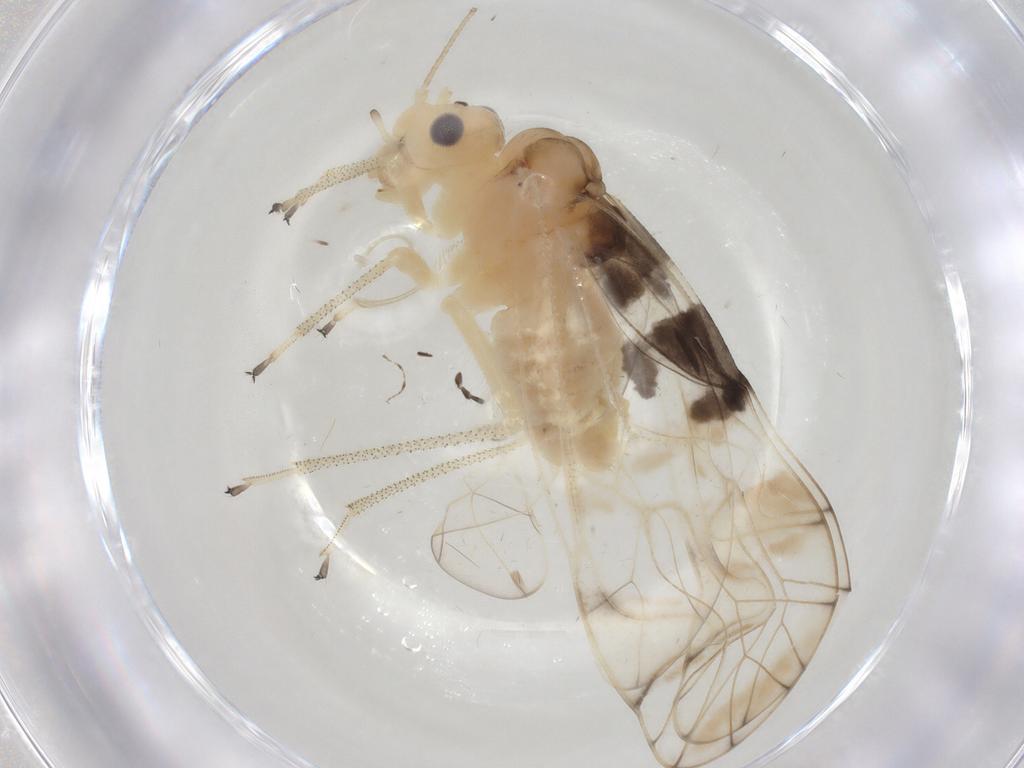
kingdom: Animalia
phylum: Arthropoda
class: Insecta
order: Psocodea
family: Amphipsocidae
